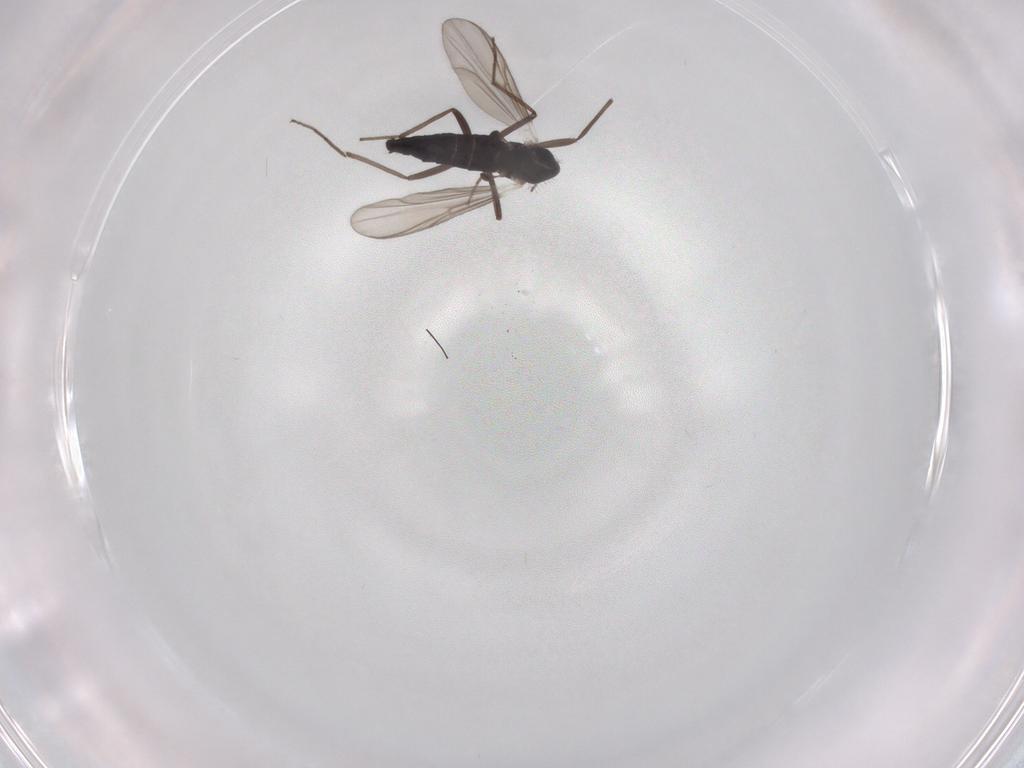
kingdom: Animalia
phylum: Arthropoda
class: Insecta
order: Diptera
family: Chironomidae
